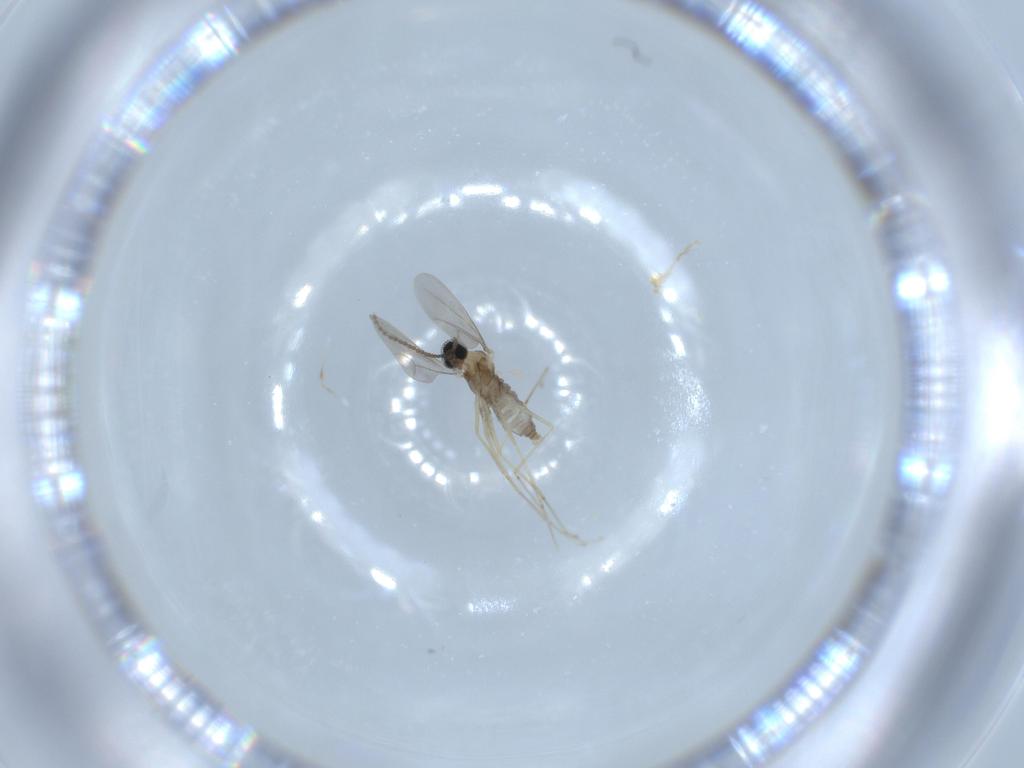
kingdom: Animalia
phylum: Arthropoda
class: Insecta
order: Diptera
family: Cecidomyiidae
